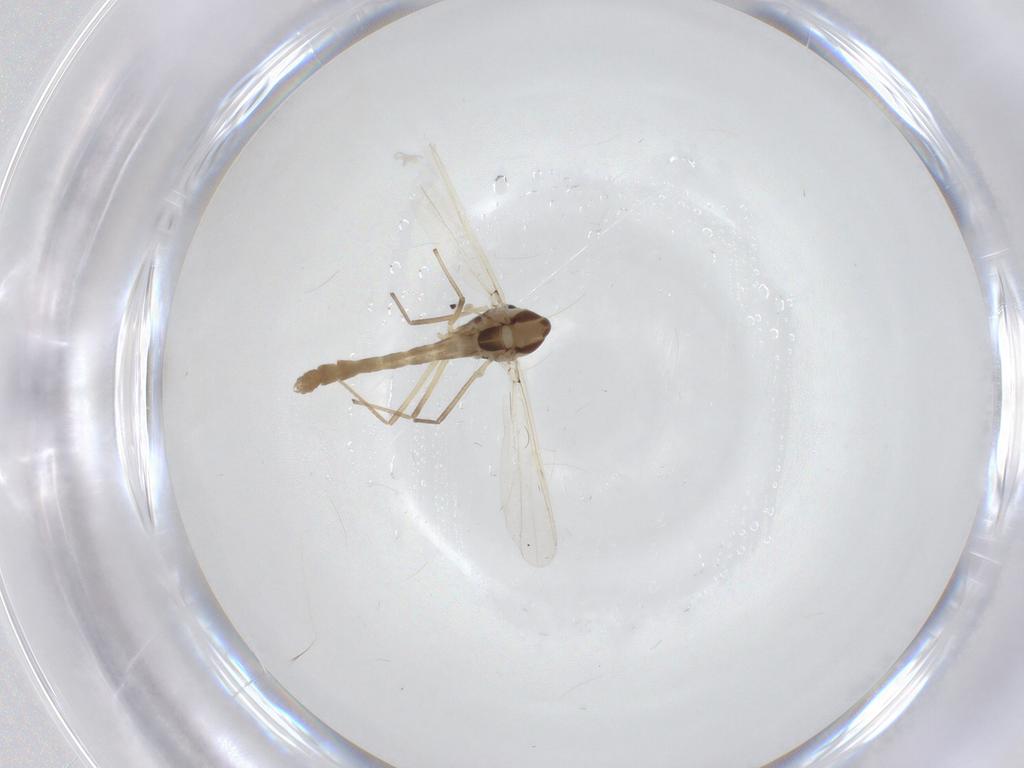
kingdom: Animalia
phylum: Arthropoda
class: Insecta
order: Diptera
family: Chironomidae
